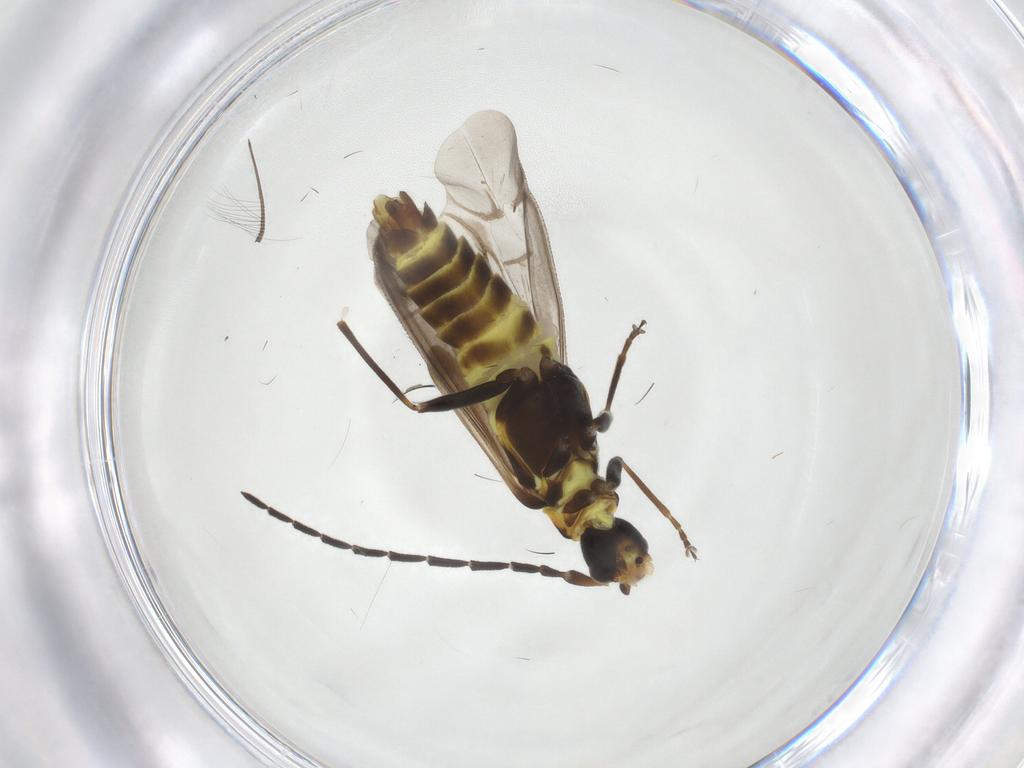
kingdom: Animalia
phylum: Arthropoda
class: Insecta
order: Coleoptera
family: Cantharidae
